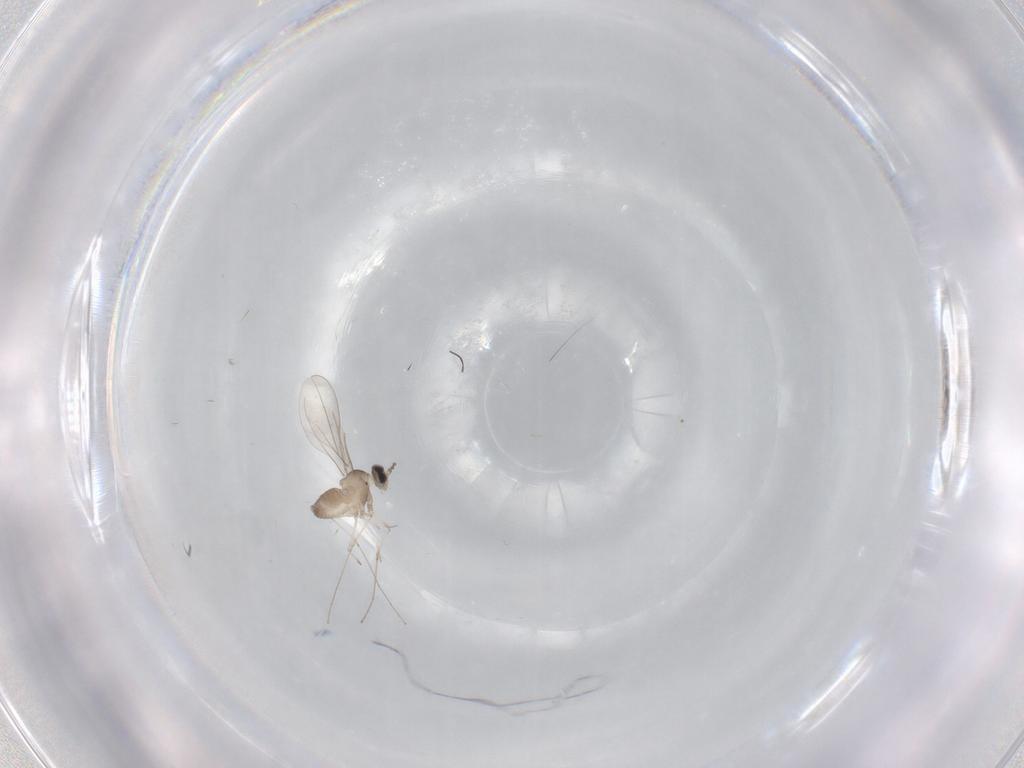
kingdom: Animalia
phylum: Arthropoda
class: Insecta
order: Diptera
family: Cecidomyiidae
